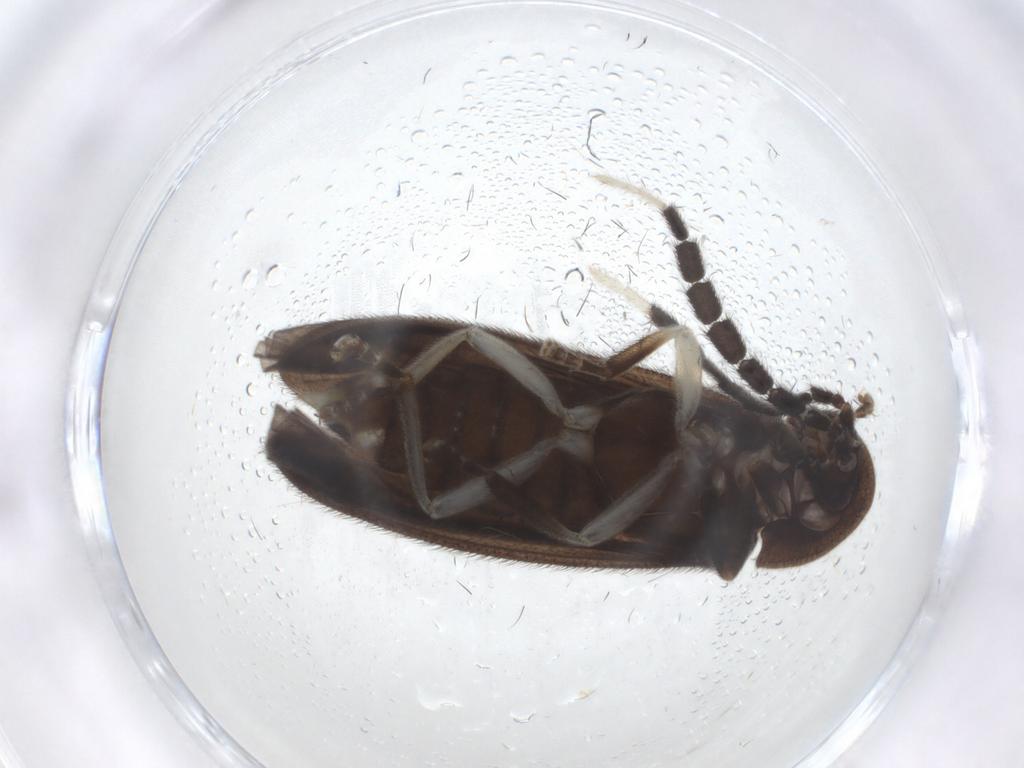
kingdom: Animalia
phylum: Arthropoda
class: Insecta
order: Coleoptera
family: Lampyridae
